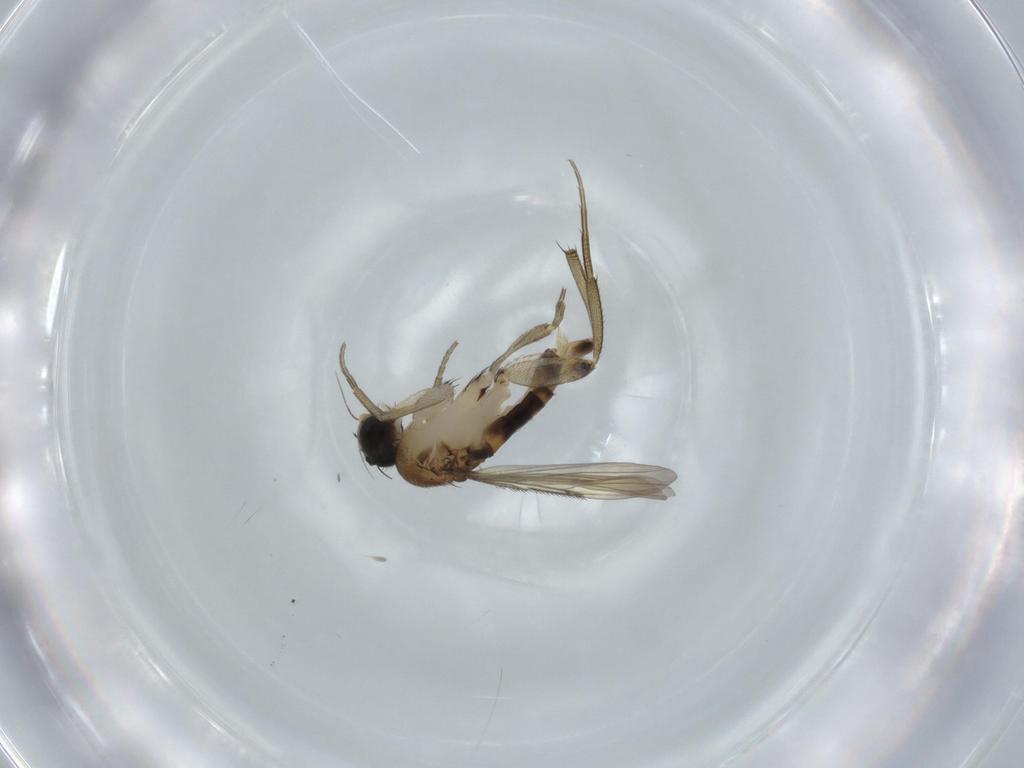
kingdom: Animalia
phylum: Arthropoda
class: Insecta
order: Diptera
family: Phoridae
